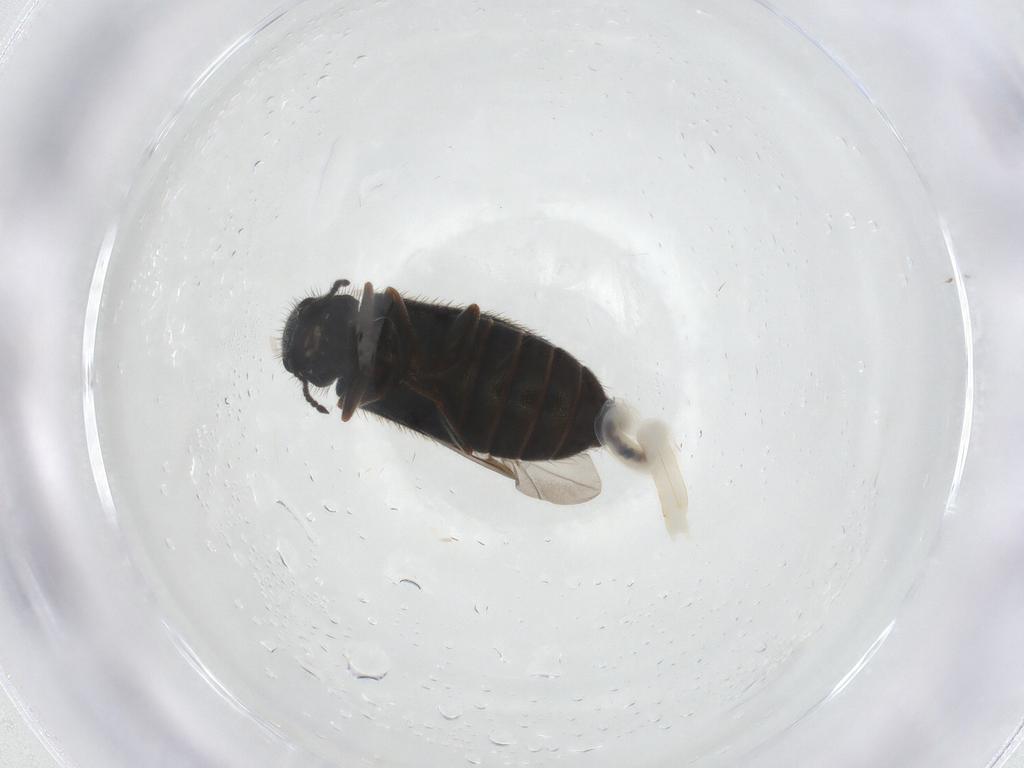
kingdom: Animalia
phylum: Arthropoda
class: Insecta
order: Coleoptera
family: Melyridae
